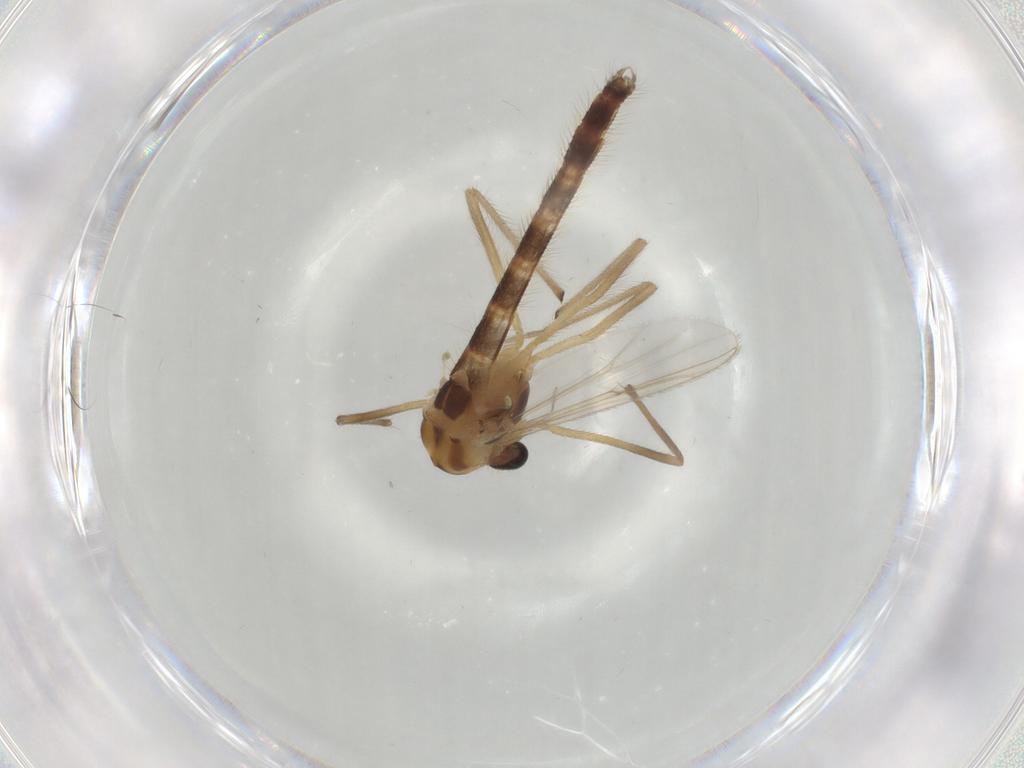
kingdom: Animalia
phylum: Arthropoda
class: Insecta
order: Diptera
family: Chironomidae
